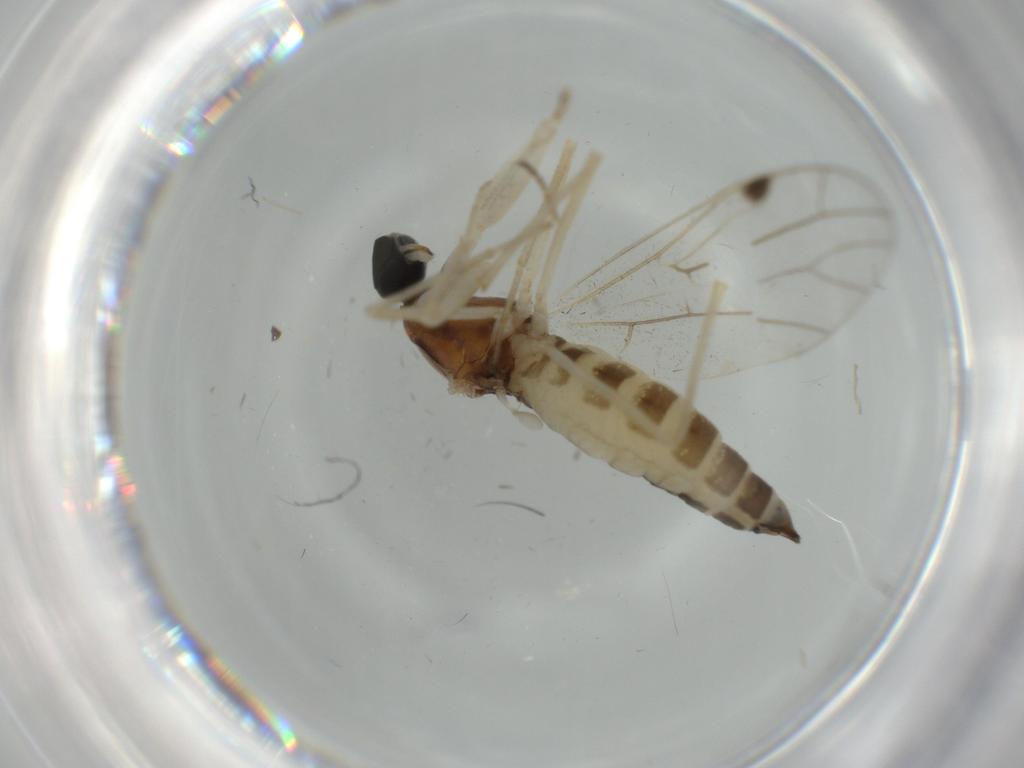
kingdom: Animalia
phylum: Arthropoda
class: Insecta
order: Diptera
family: Empididae
